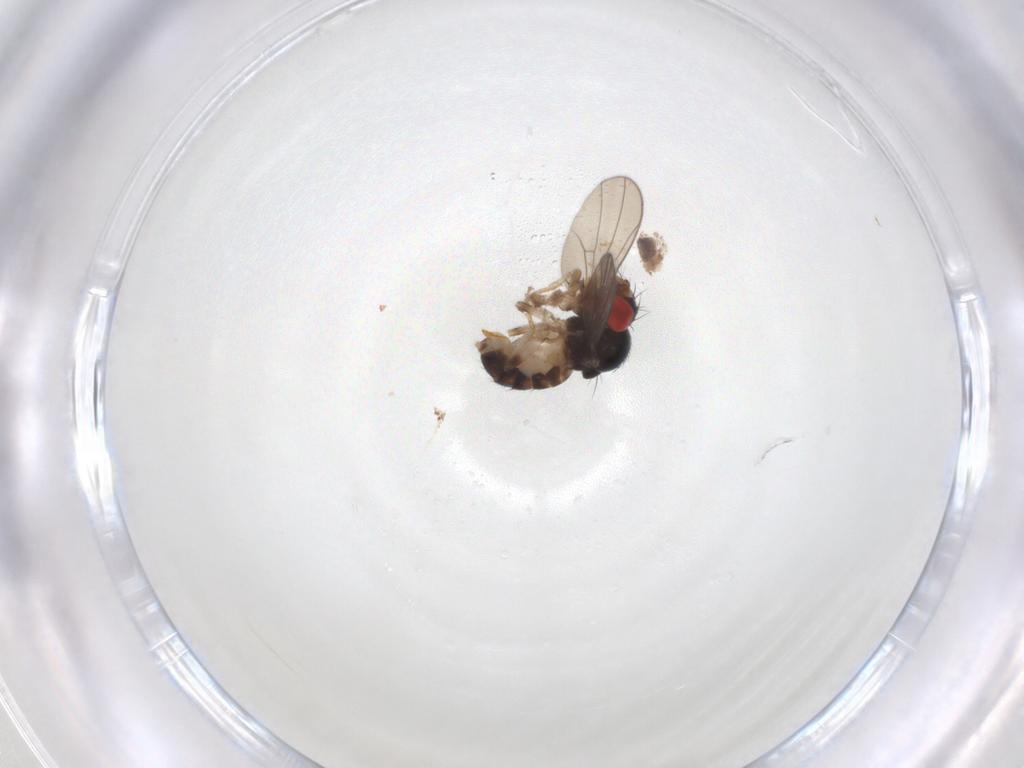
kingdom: Animalia
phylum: Arthropoda
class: Insecta
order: Diptera
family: Drosophilidae
